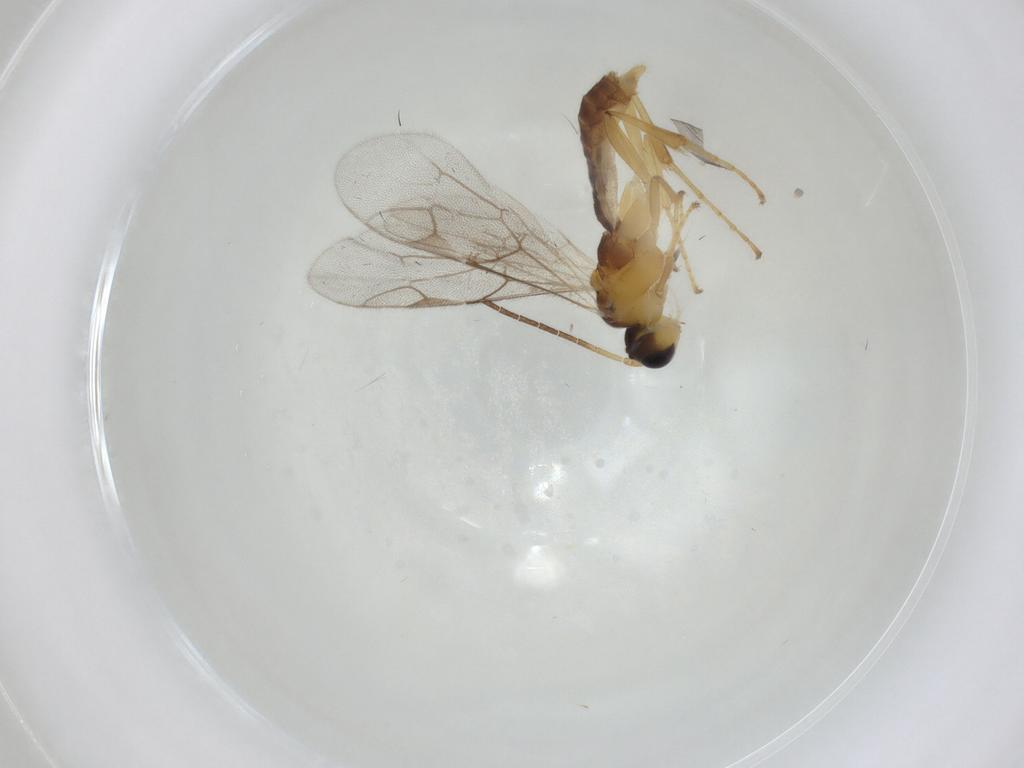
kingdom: Animalia
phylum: Arthropoda
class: Insecta
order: Hymenoptera
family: Ichneumonidae
